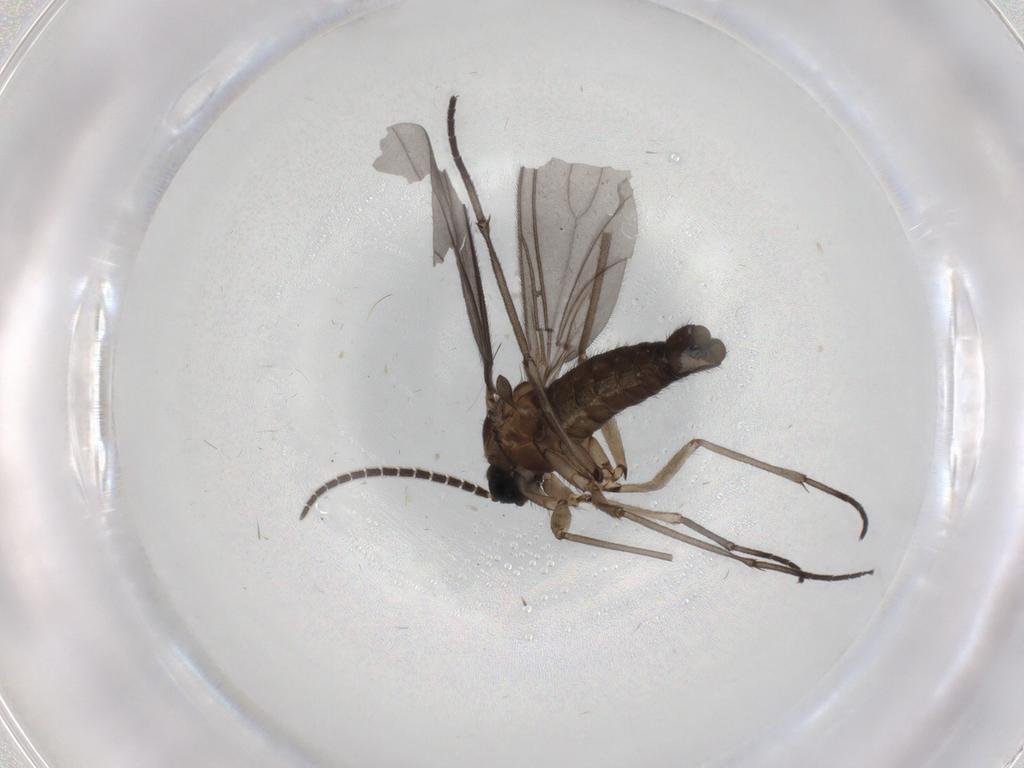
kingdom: Animalia
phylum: Arthropoda
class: Insecta
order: Diptera
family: Sciaridae
